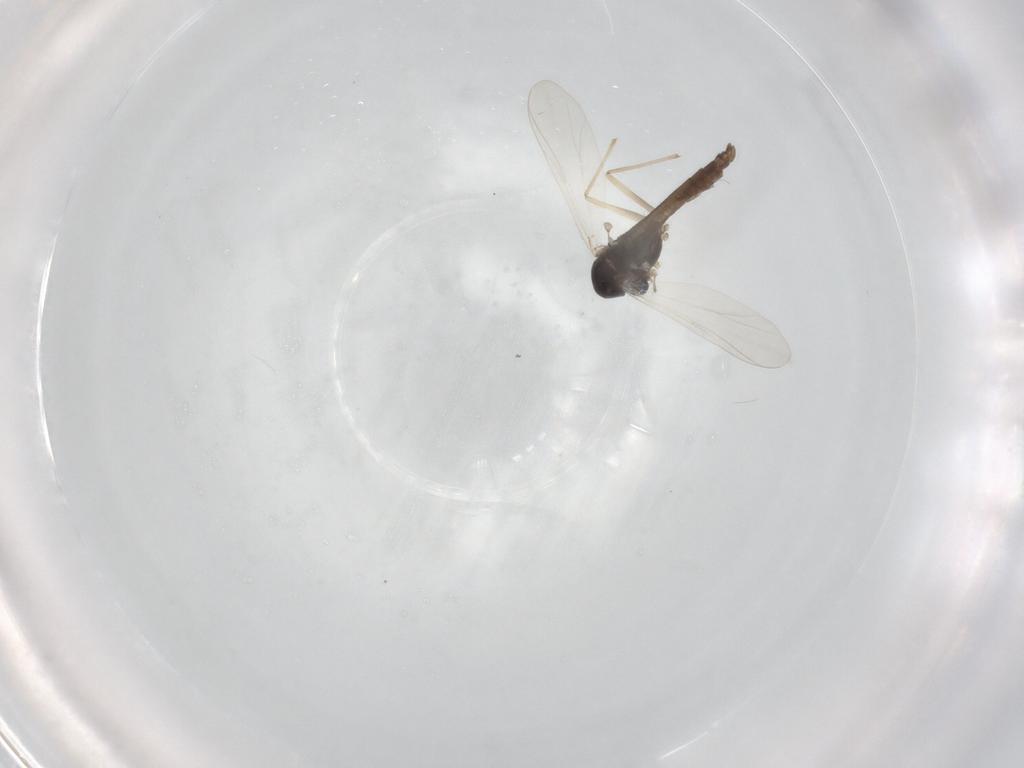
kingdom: Animalia
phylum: Arthropoda
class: Insecta
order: Diptera
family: Chironomidae
